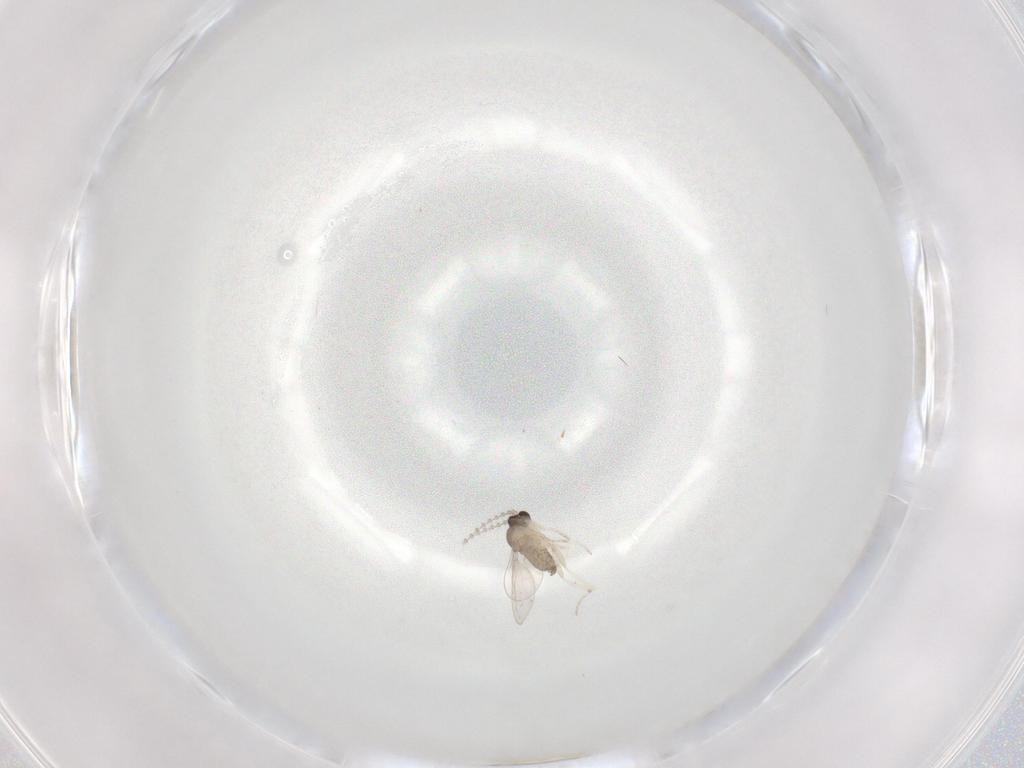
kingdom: Animalia
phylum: Arthropoda
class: Insecta
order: Diptera
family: Cecidomyiidae
